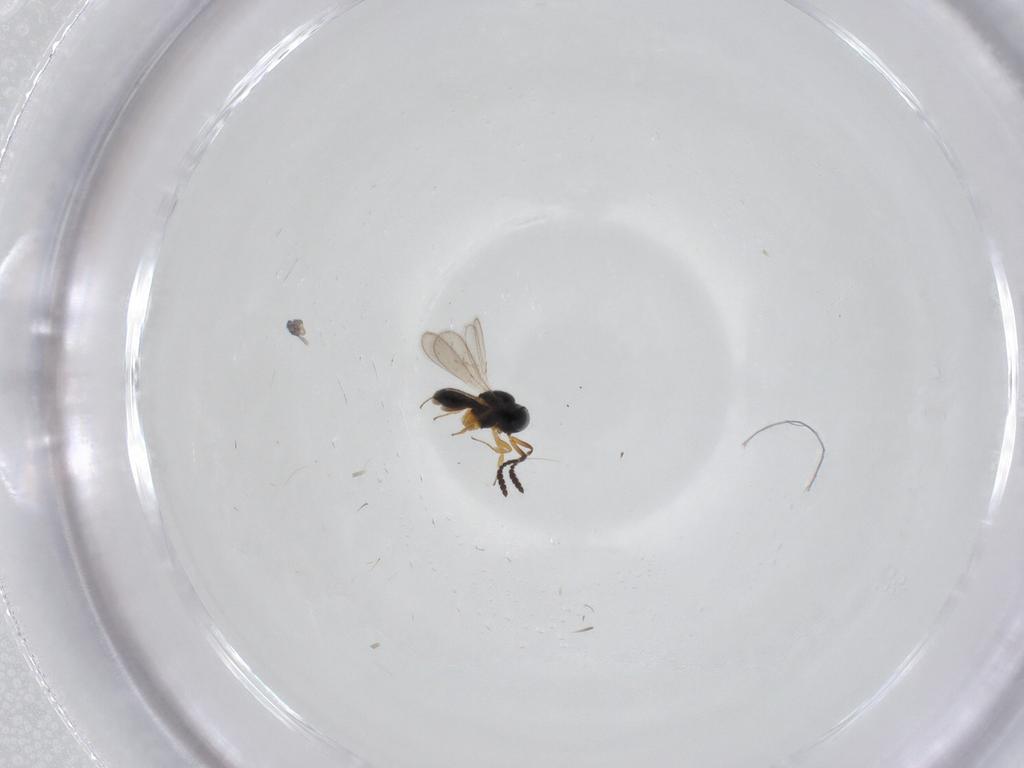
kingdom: Animalia
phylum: Arthropoda
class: Insecta
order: Hymenoptera
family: Scelionidae
